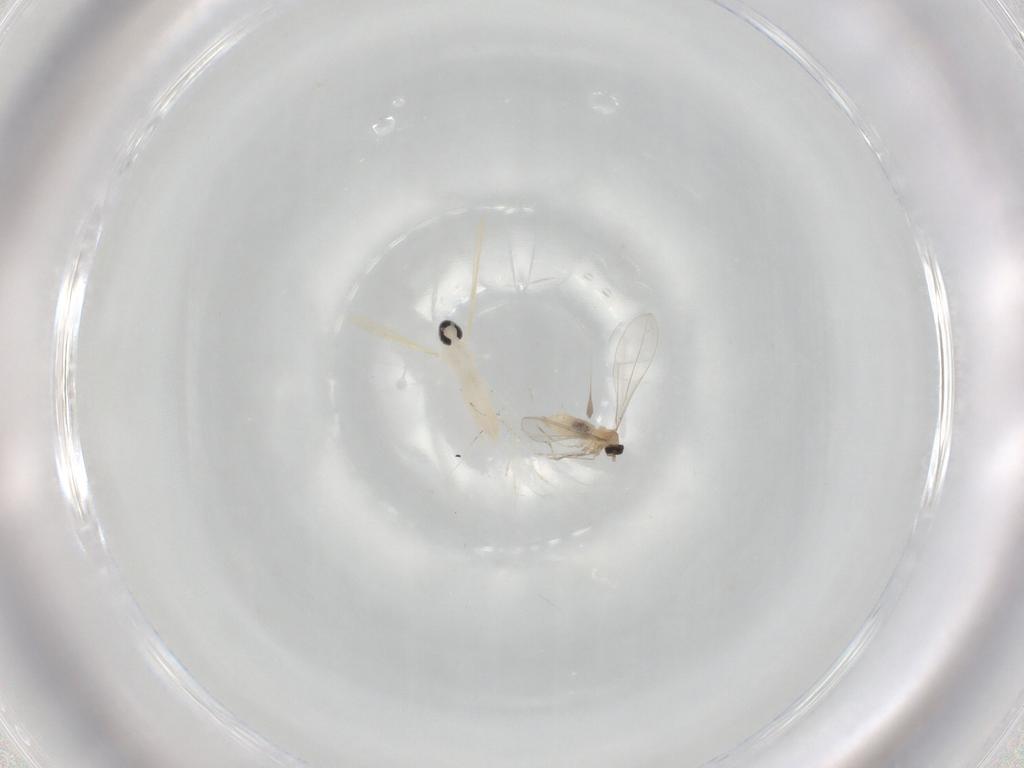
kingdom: Animalia
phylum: Arthropoda
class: Insecta
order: Diptera
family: Cecidomyiidae
